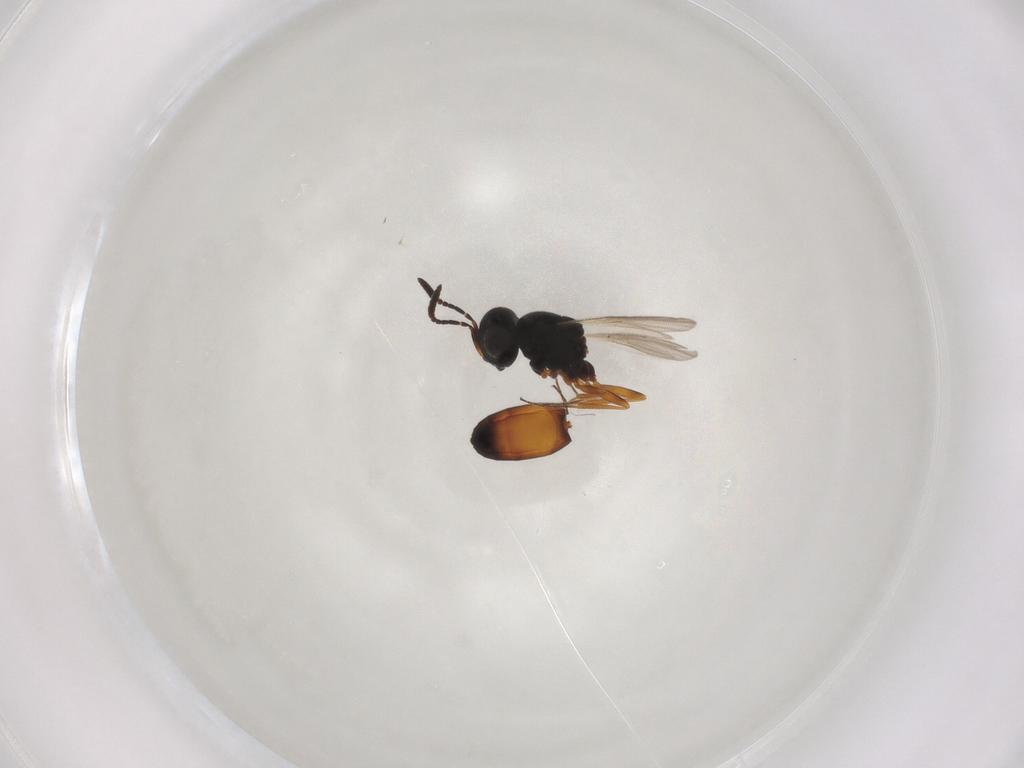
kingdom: Animalia
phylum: Arthropoda
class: Insecta
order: Hymenoptera
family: Scelionidae
